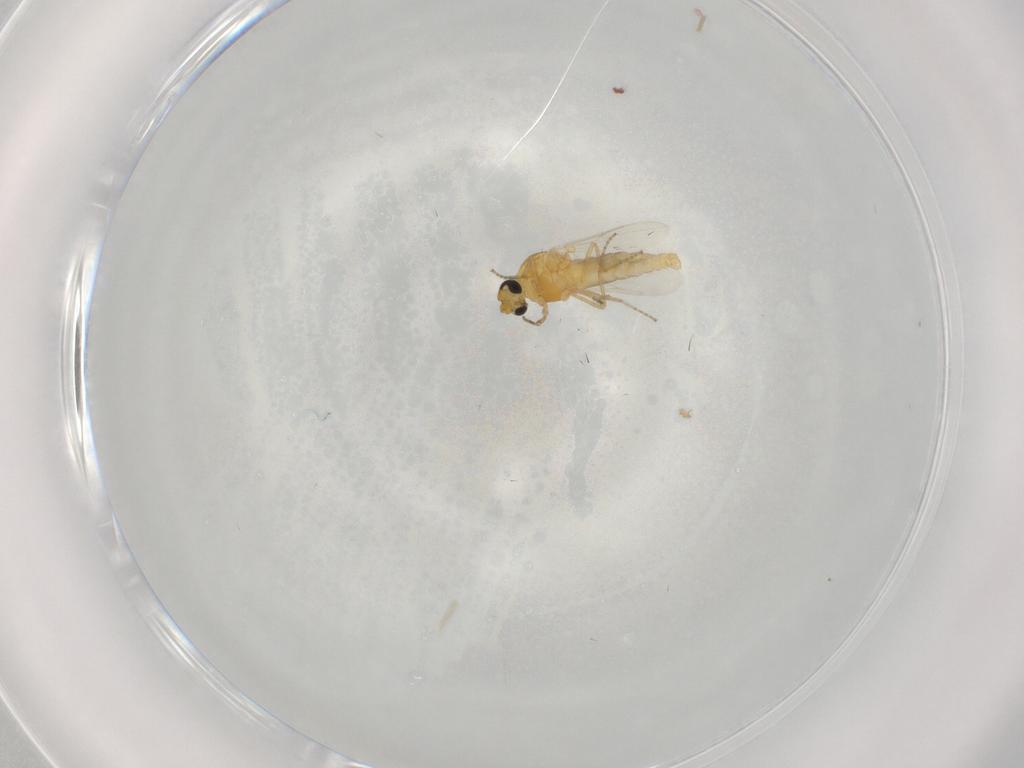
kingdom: Animalia
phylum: Arthropoda
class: Insecta
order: Diptera
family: Ceratopogonidae
